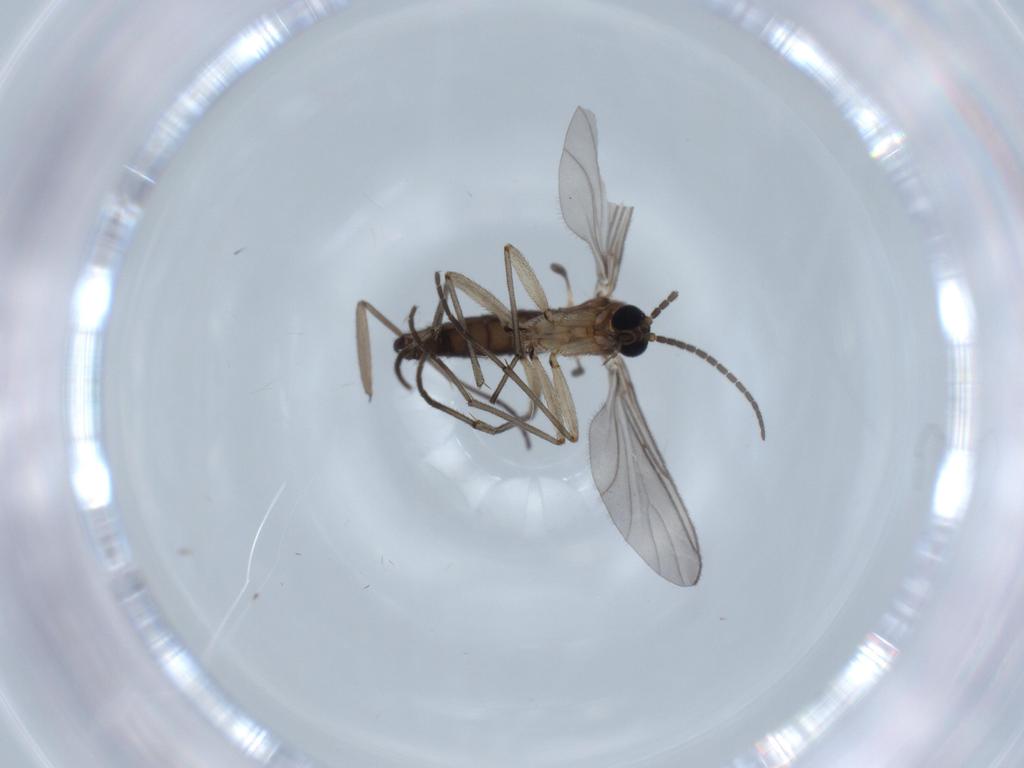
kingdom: Animalia
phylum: Arthropoda
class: Insecta
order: Diptera
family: Sciaridae
